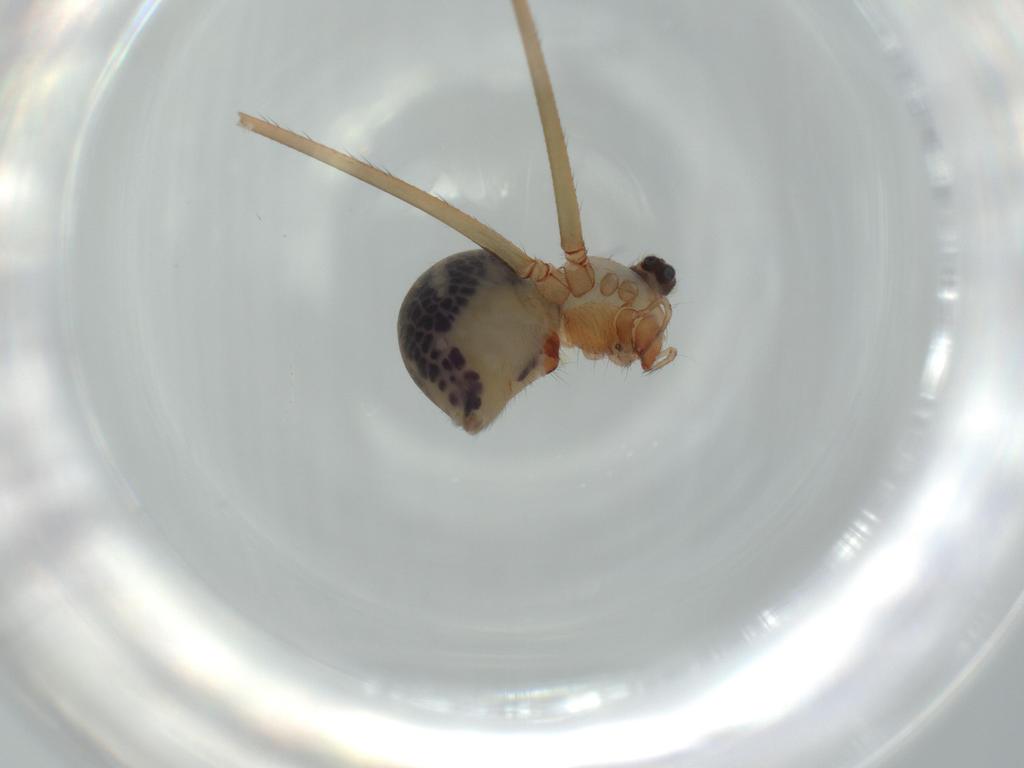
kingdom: Animalia
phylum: Arthropoda
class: Arachnida
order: Araneae
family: Pholcidae
